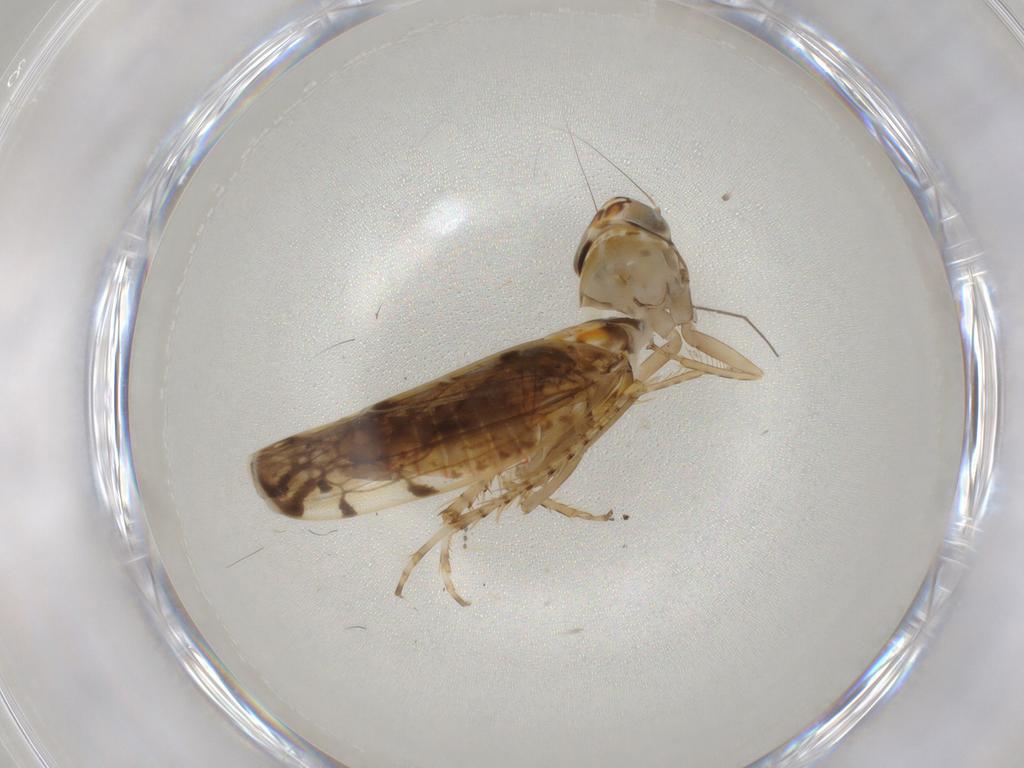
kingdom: Animalia
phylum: Arthropoda
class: Insecta
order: Hemiptera
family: Cicadellidae
